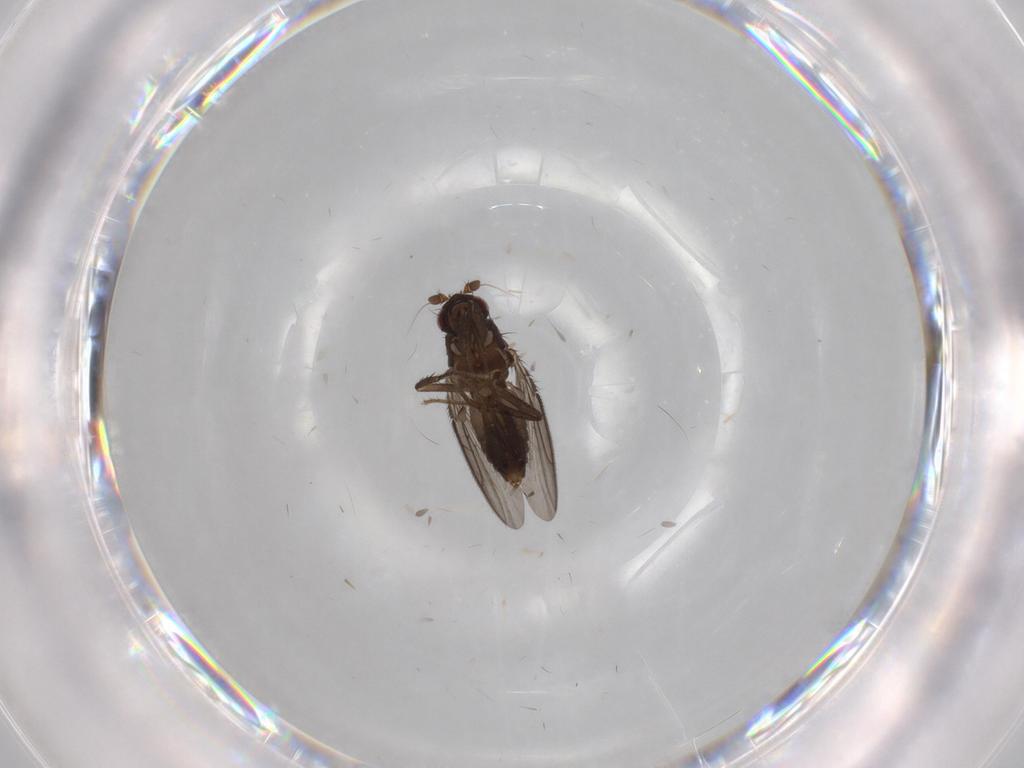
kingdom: Animalia
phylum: Arthropoda
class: Insecta
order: Diptera
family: Sphaeroceridae
